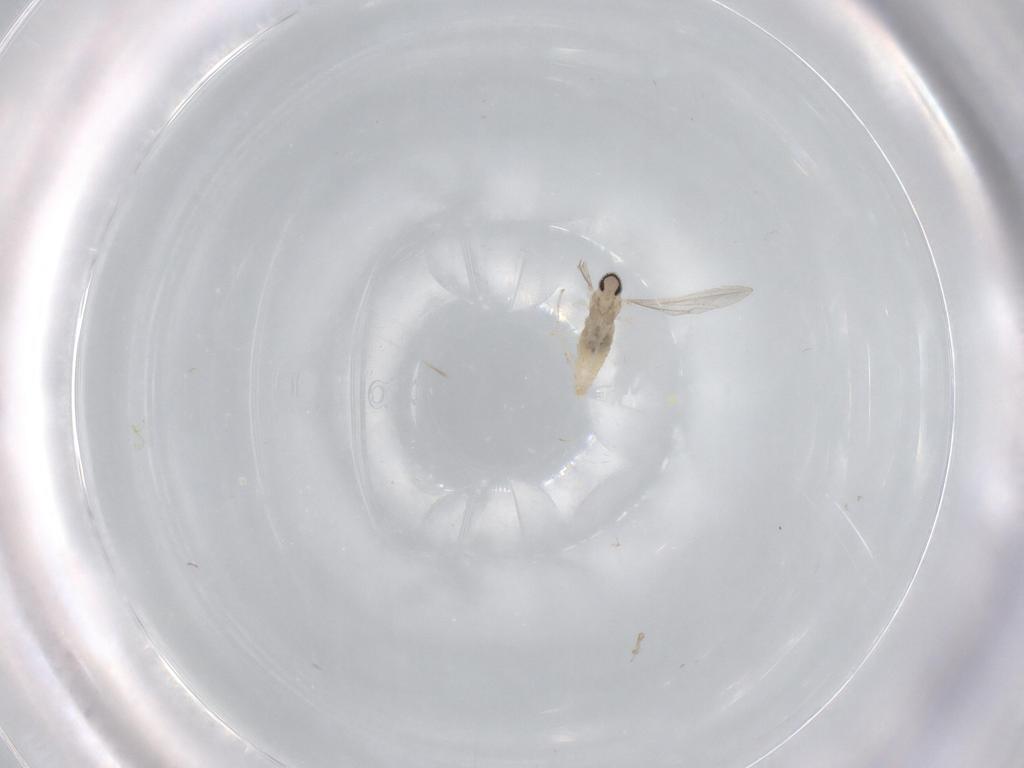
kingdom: Animalia
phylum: Arthropoda
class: Insecta
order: Diptera
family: Cecidomyiidae
